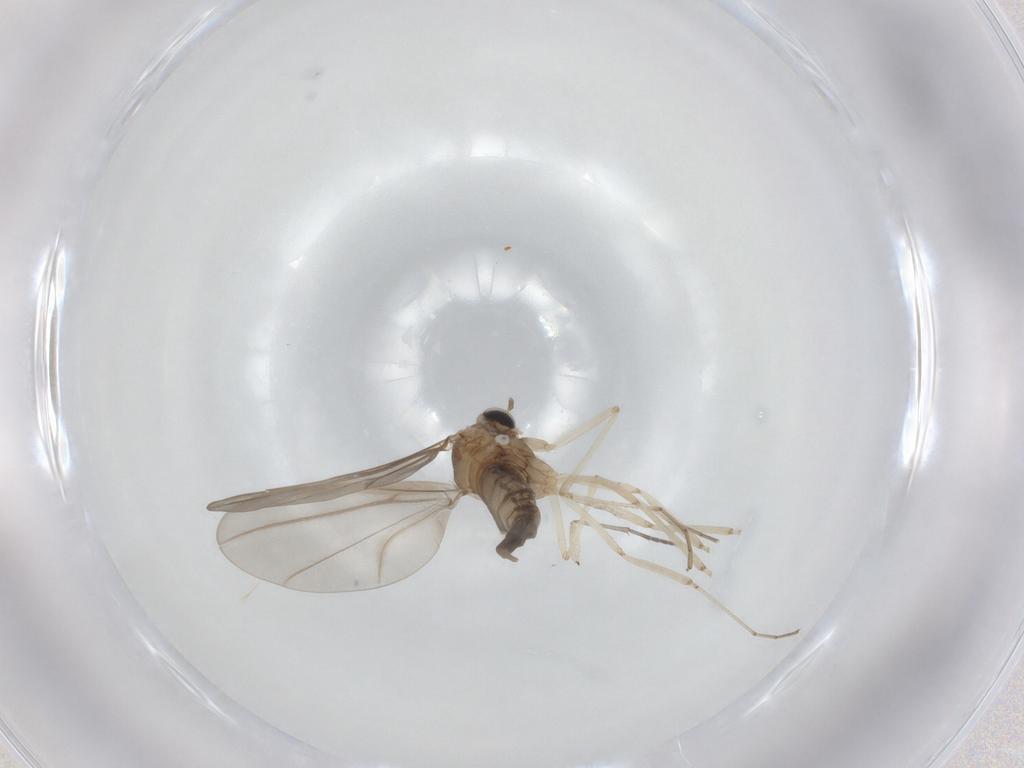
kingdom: Animalia
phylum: Arthropoda
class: Insecta
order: Diptera
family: Cecidomyiidae
